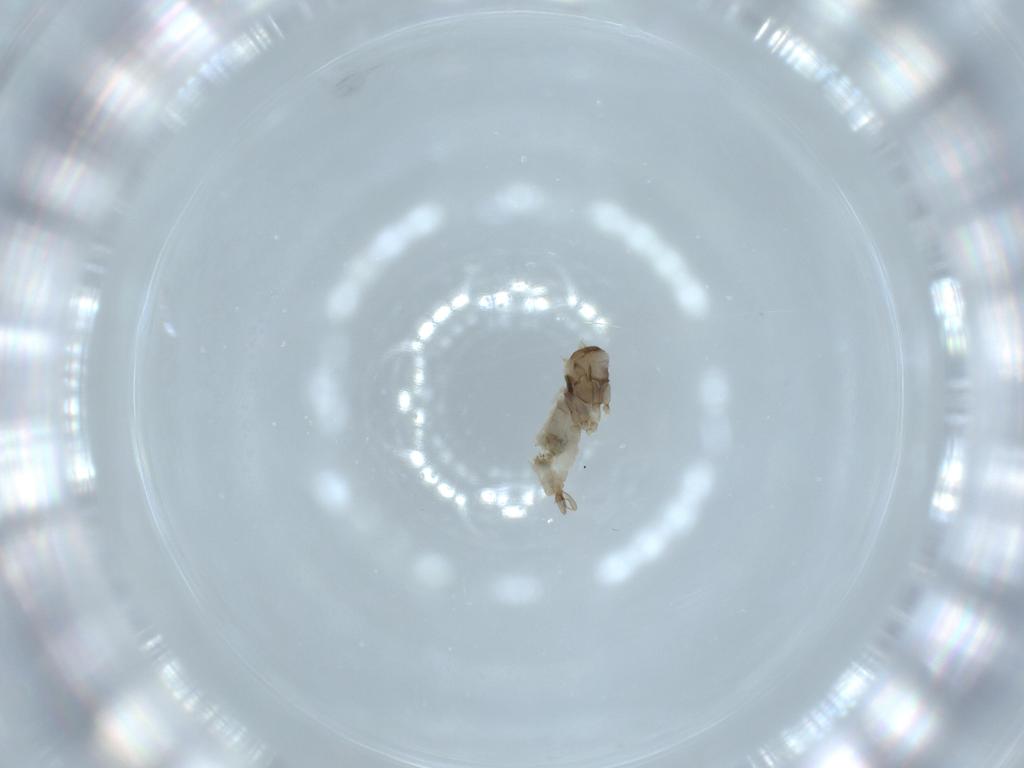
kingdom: Animalia
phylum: Arthropoda
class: Insecta
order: Diptera
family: Cecidomyiidae
